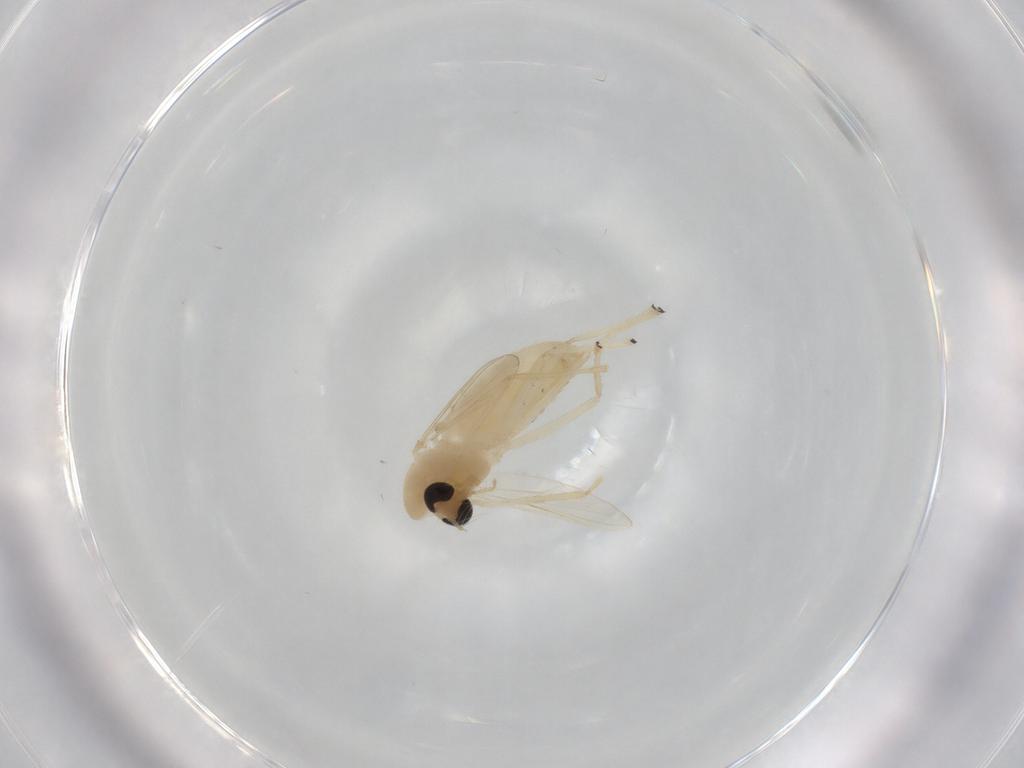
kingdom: Animalia
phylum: Arthropoda
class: Insecta
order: Diptera
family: Chironomidae
